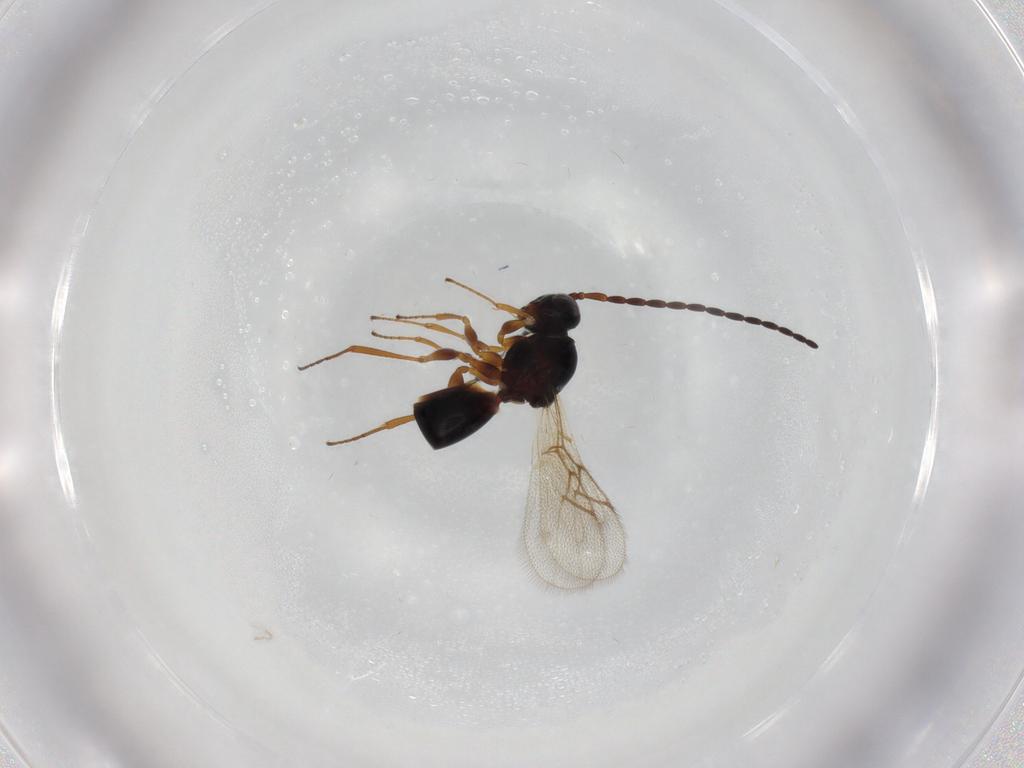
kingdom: Animalia
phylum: Arthropoda
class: Insecta
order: Hymenoptera
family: Figitidae
